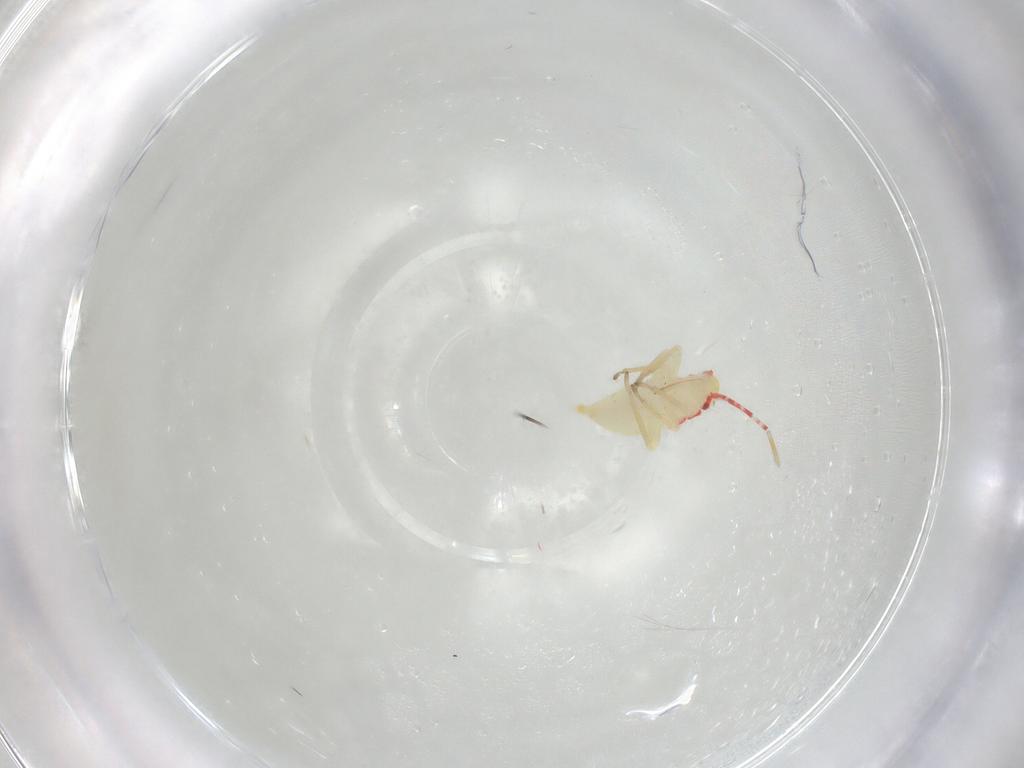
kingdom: Animalia
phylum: Arthropoda
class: Insecta
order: Hemiptera
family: Miridae
